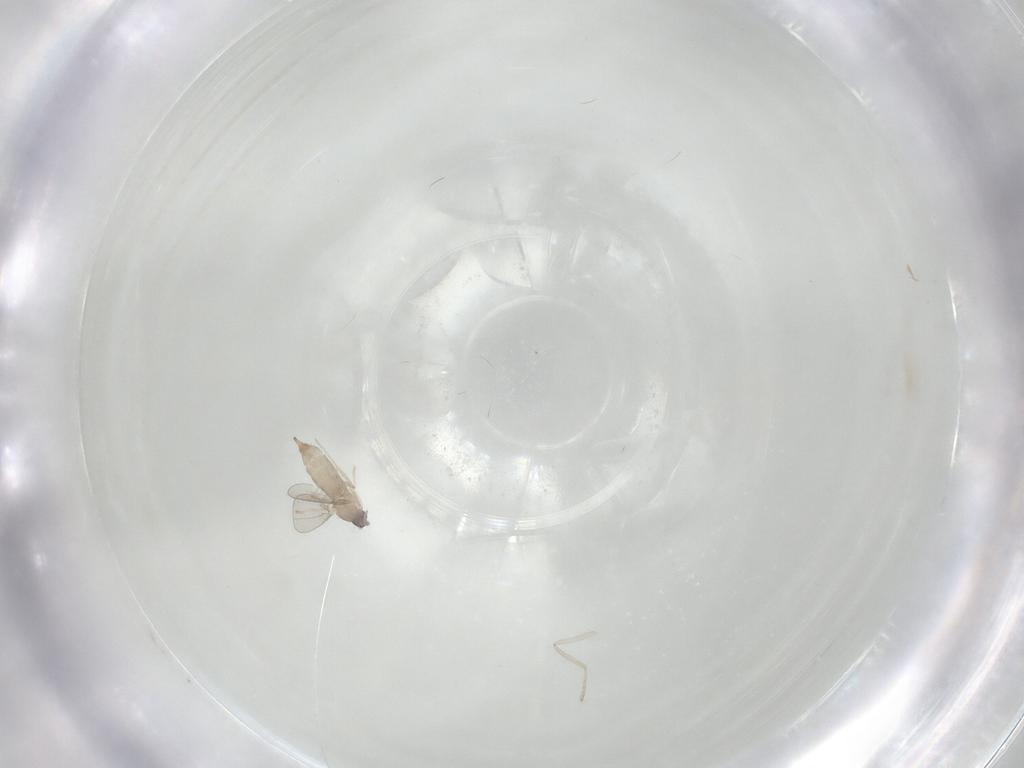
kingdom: Animalia
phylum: Arthropoda
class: Insecta
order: Diptera
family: Cecidomyiidae
